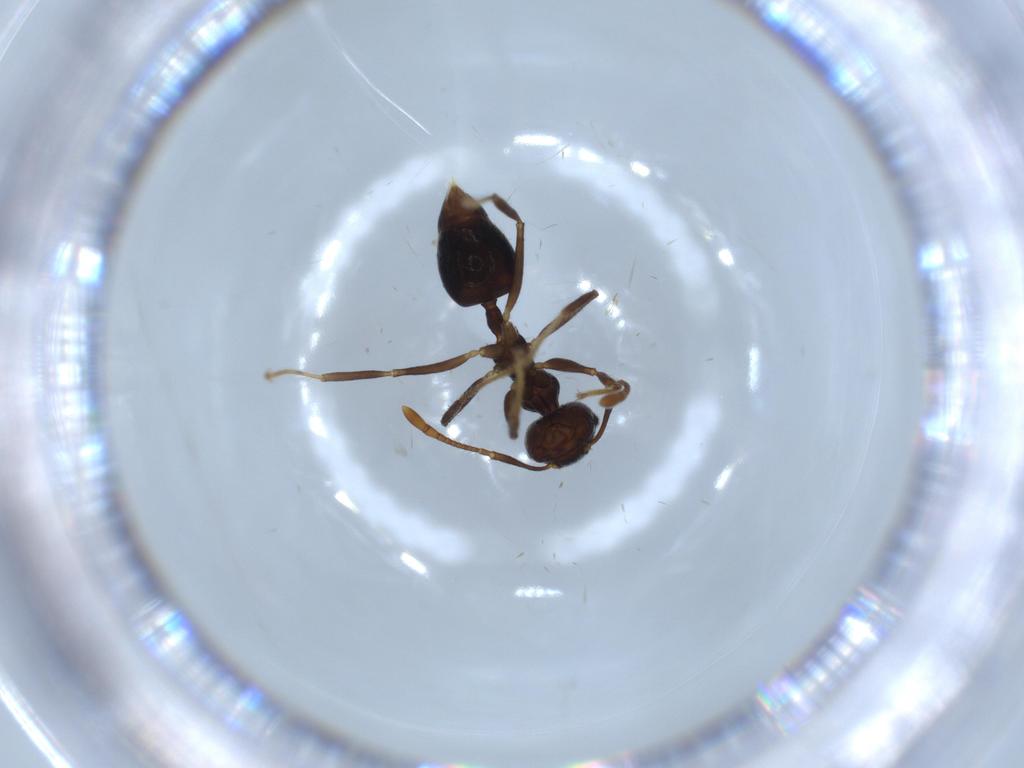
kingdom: Animalia
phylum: Arthropoda
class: Insecta
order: Hymenoptera
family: Formicidae
